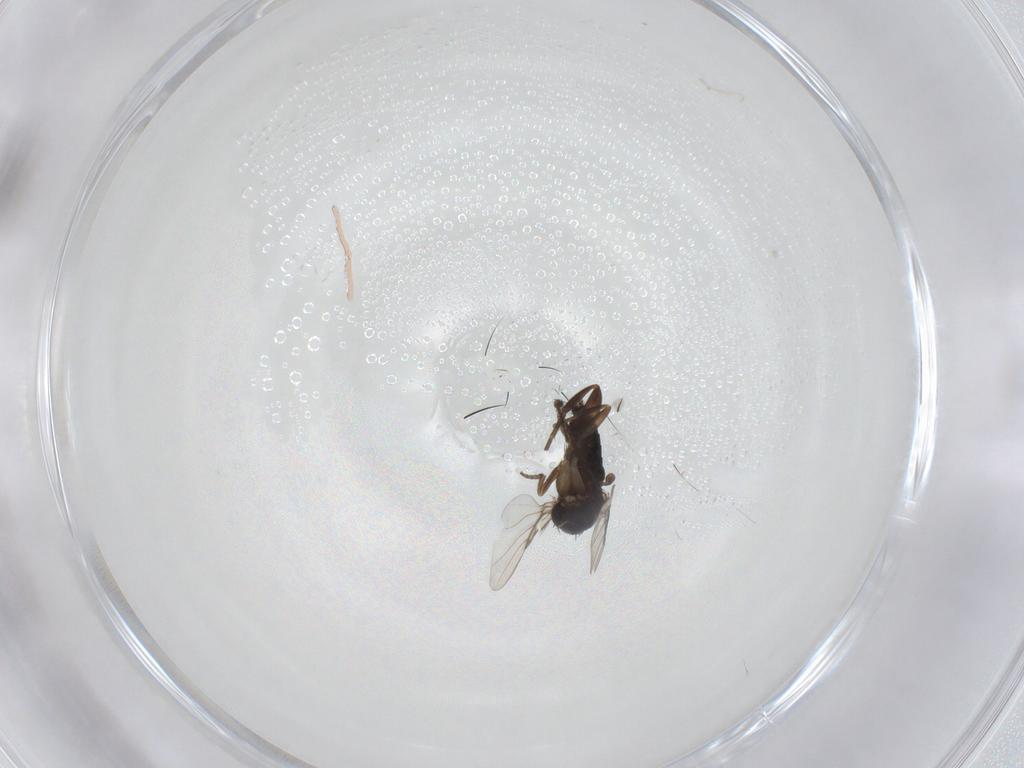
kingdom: Animalia
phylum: Arthropoda
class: Insecta
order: Diptera
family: Phoridae
